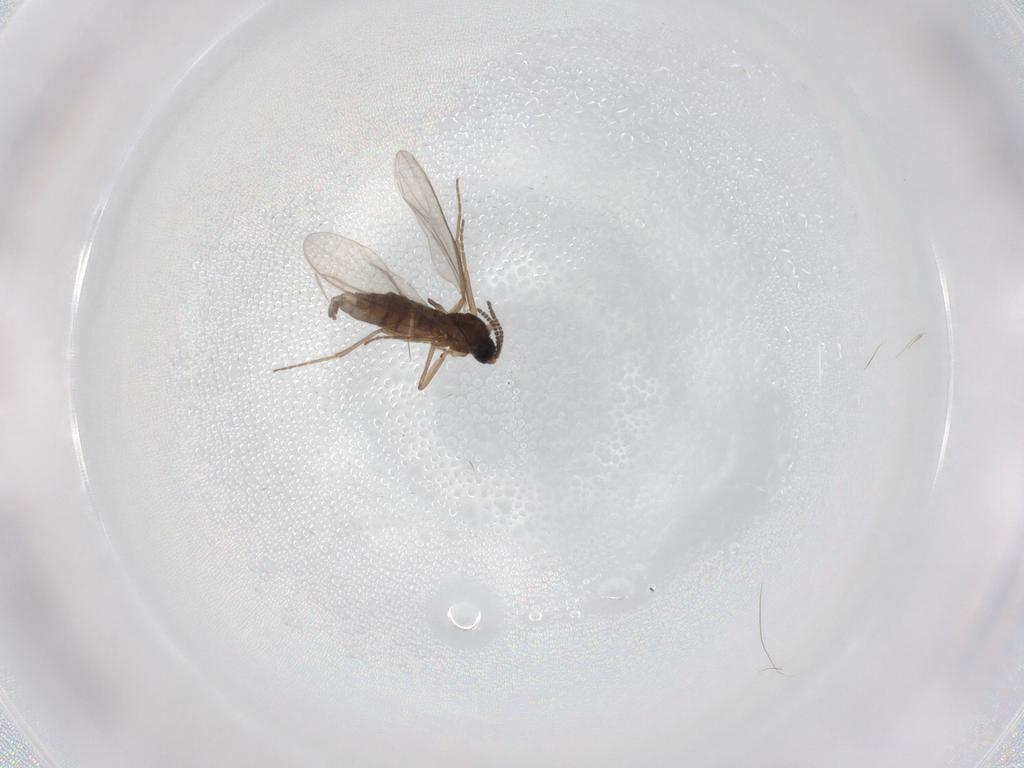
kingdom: Animalia
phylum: Arthropoda
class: Insecta
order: Diptera
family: Sciaridae
